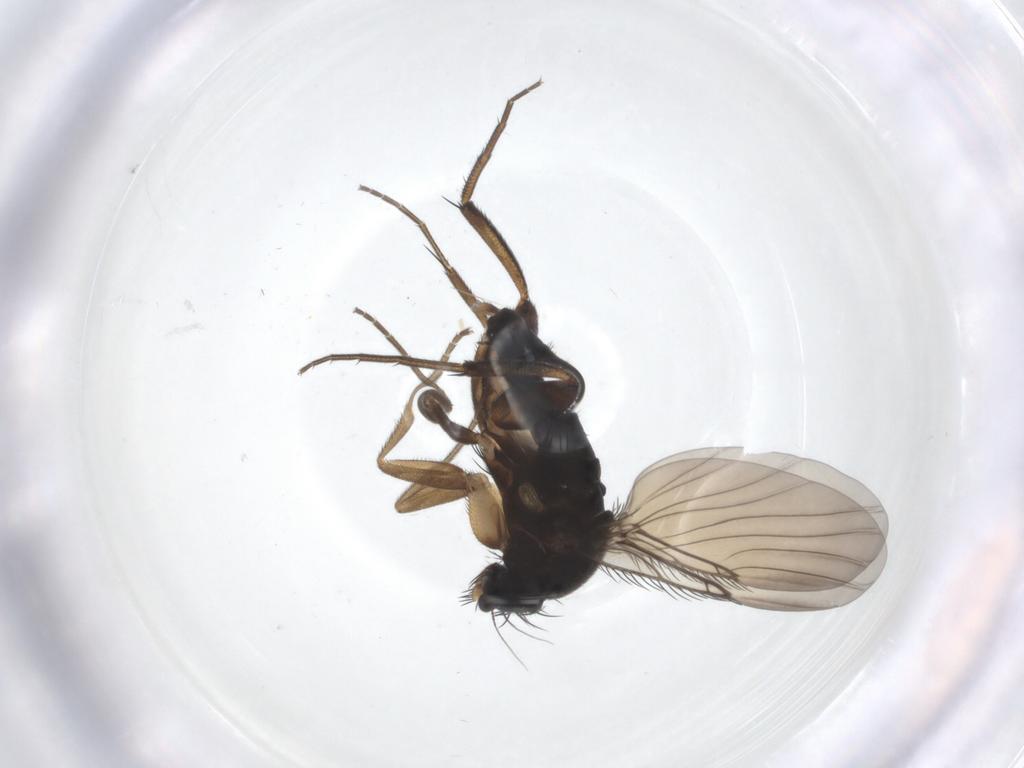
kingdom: Animalia
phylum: Arthropoda
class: Insecta
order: Diptera
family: Phoridae
